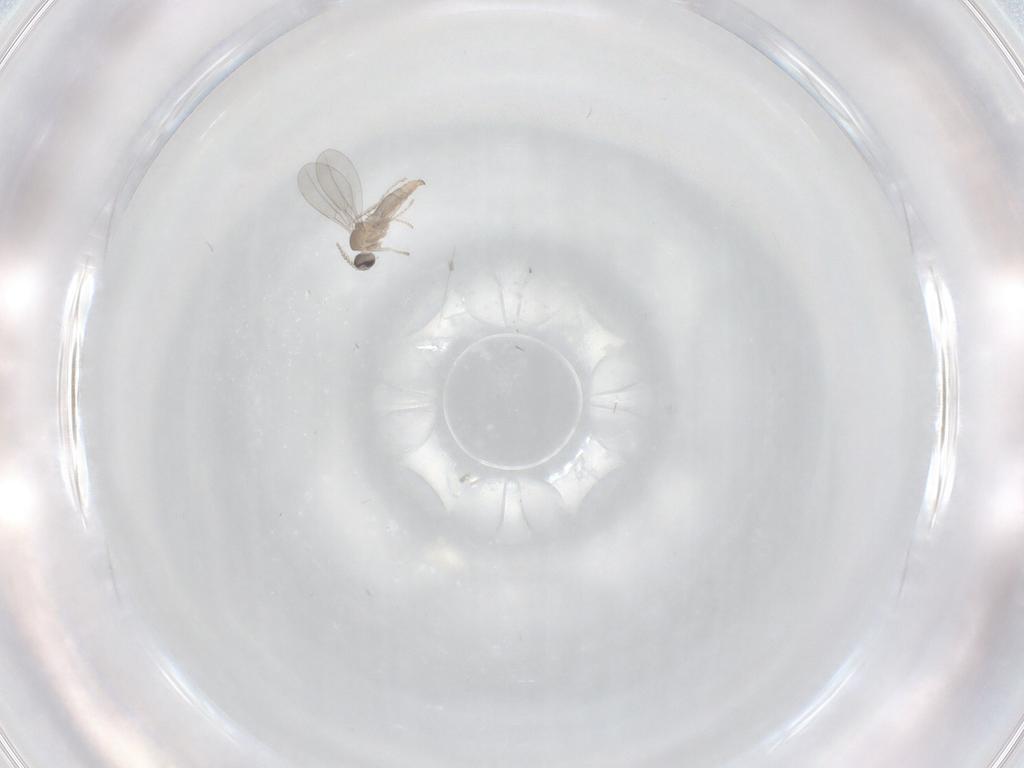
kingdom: Animalia
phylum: Arthropoda
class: Insecta
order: Diptera
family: Cecidomyiidae
